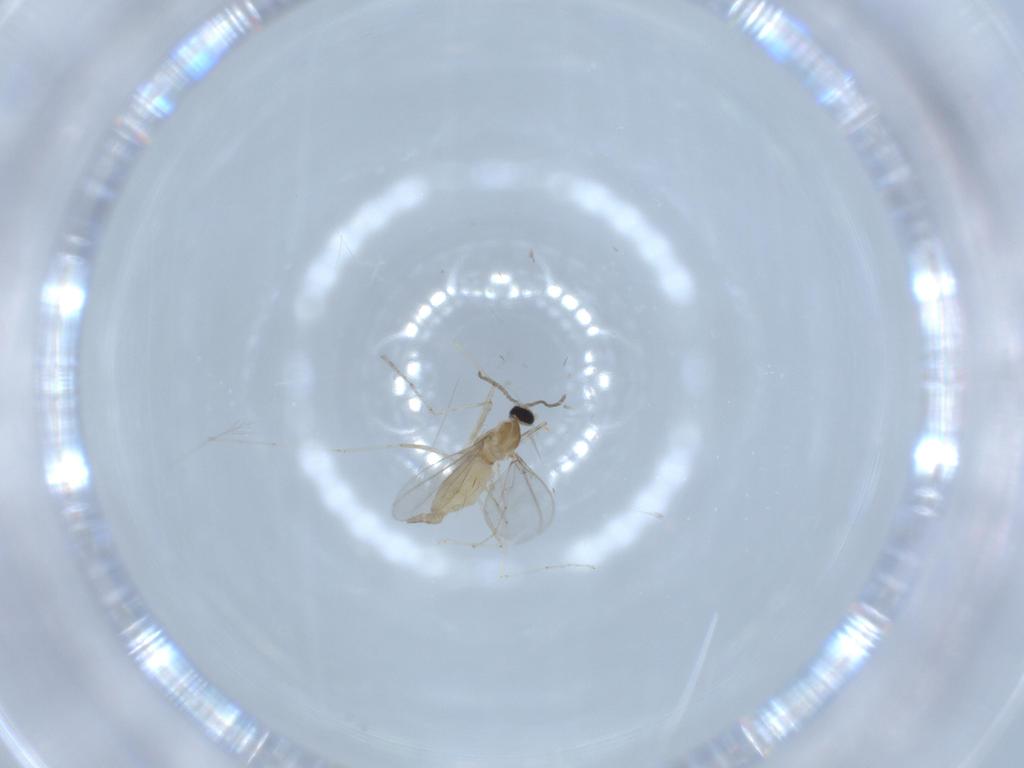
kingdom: Animalia
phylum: Arthropoda
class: Insecta
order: Diptera
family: Cecidomyiidae
